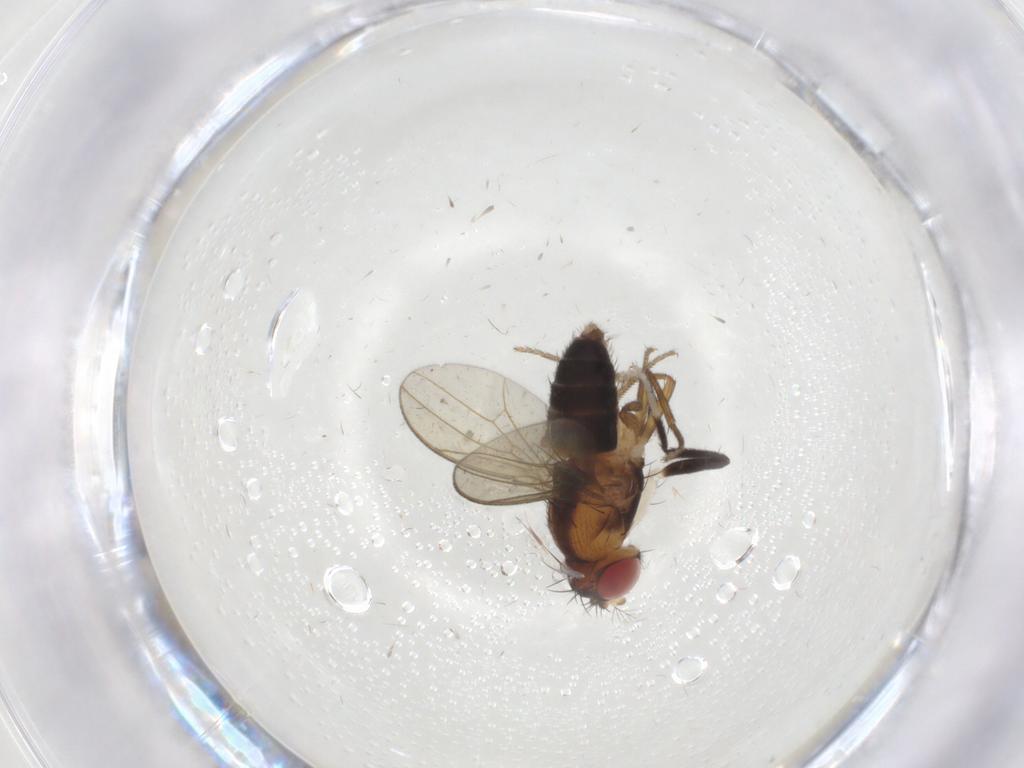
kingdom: Animalia
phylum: Arthropoda
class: Insecta
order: Diptera
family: Drosophilidae
